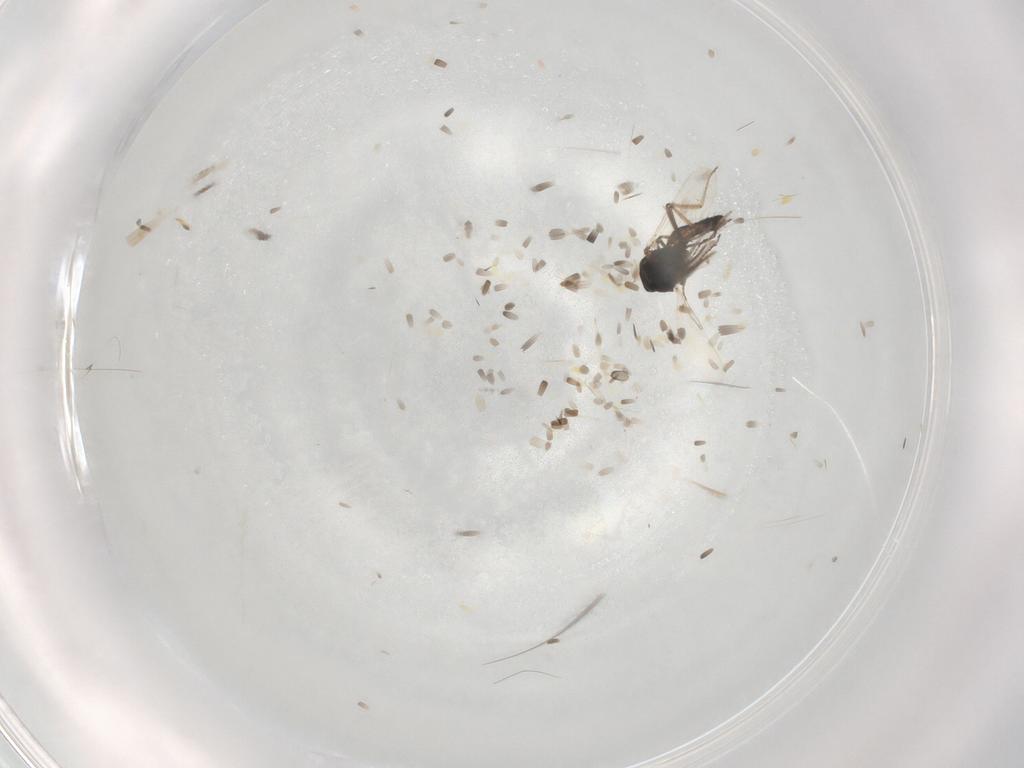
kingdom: Animalia
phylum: Arthropoda
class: Insecta
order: Diptera
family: Ceratopogonidae
